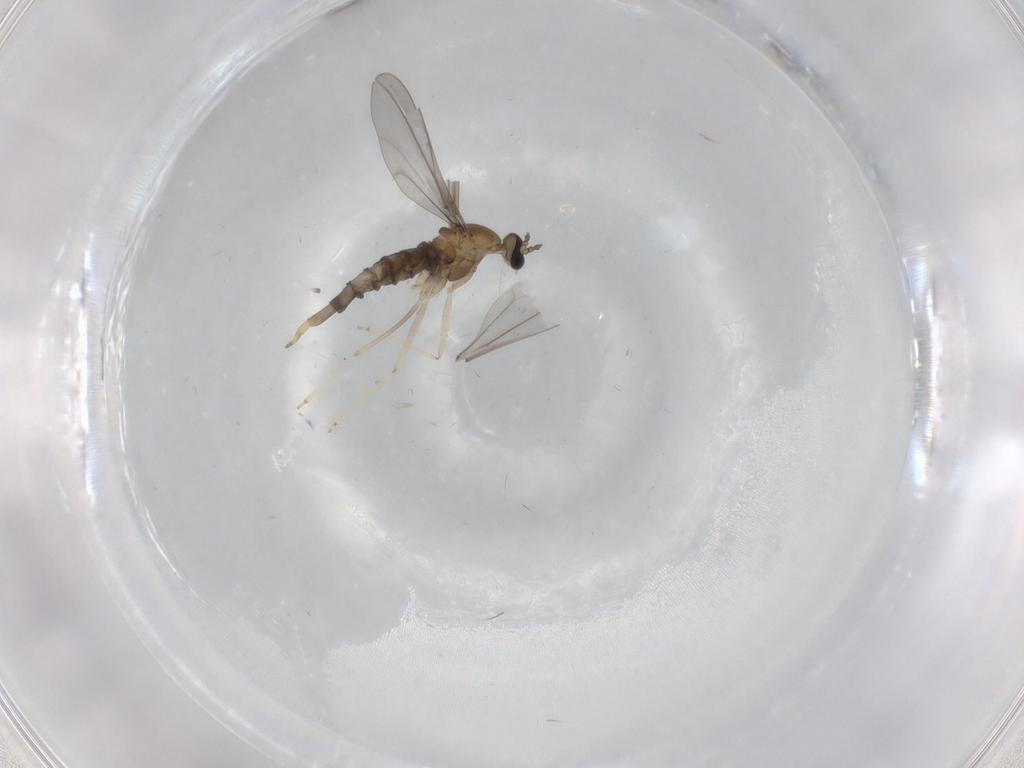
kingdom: Animalia
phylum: Arthropoda
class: Insecta
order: Diptera
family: Cecidomyiidae
